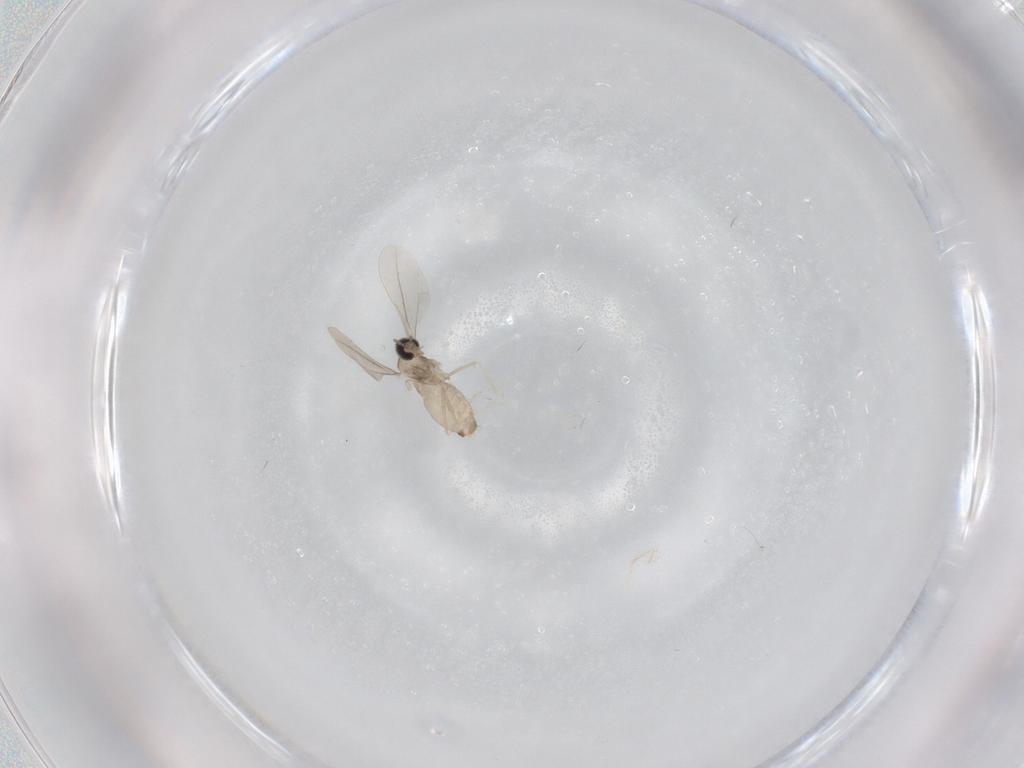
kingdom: Animalia
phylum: Arthropoda
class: Insecta
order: Diptera
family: Cecidomyiidae
